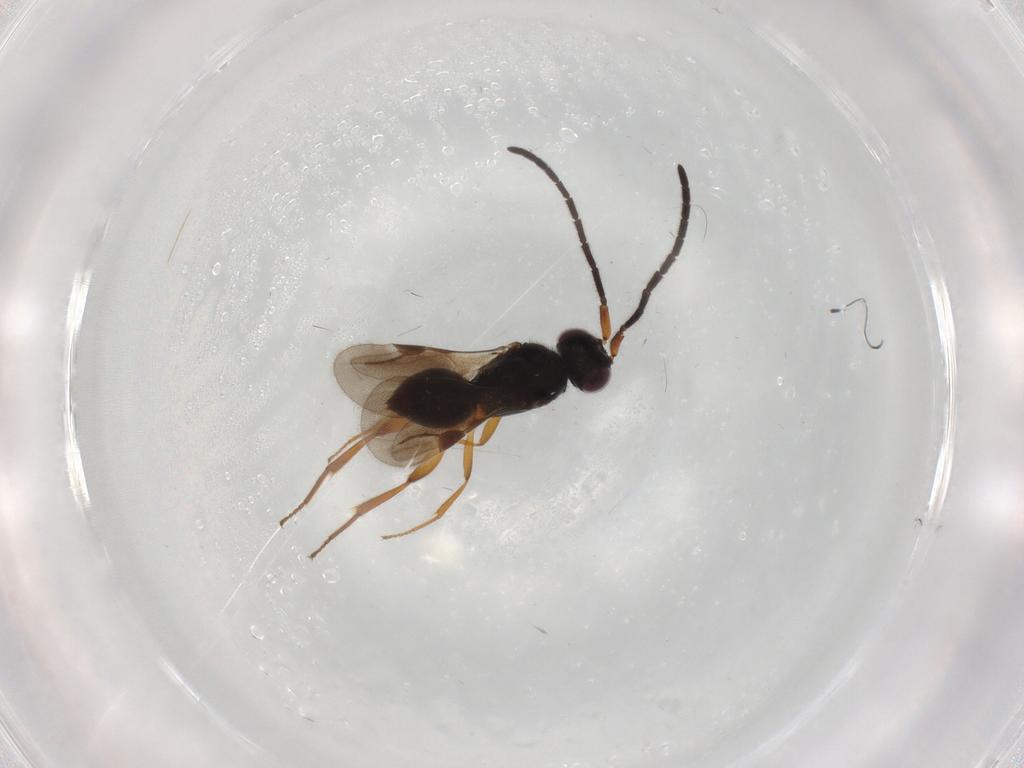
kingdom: Animalia
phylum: Arthropoda
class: Insecta
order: Hymenoptera
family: Megaspilidae
